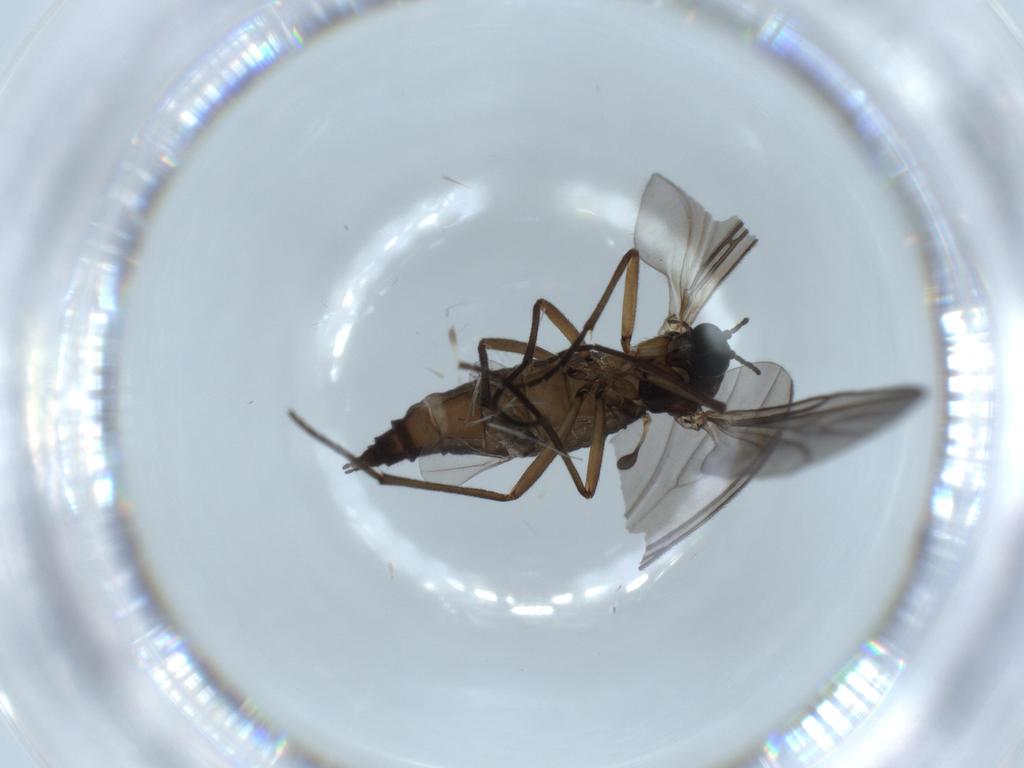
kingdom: Animalia
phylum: Arthropoda
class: Insecta
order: Diptera
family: Cecidomyiidae
